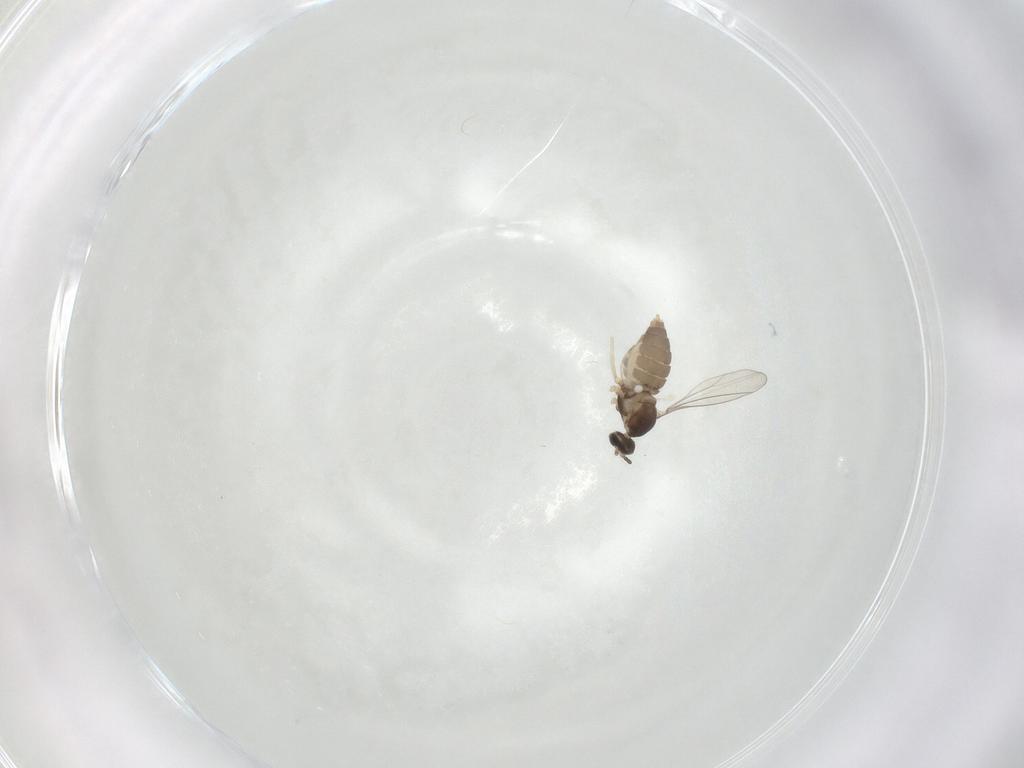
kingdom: Animalia
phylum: Arthropoda
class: Insecta
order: Diptera
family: Cecidomyiidae
